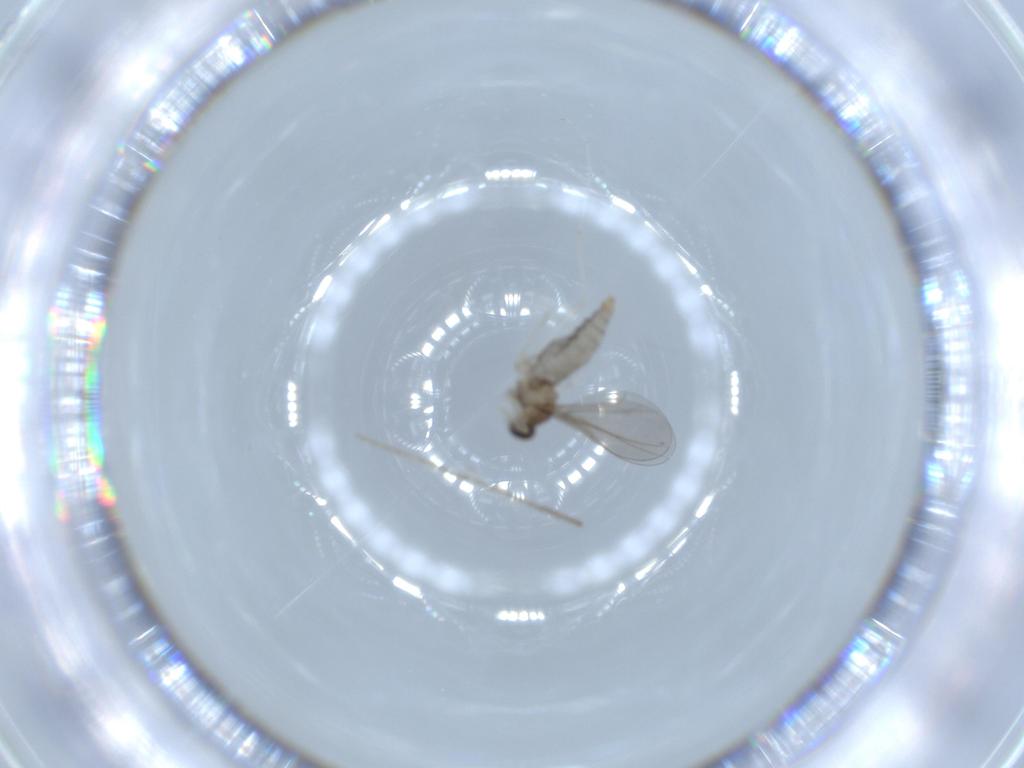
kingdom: Animalia
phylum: Arthropoda
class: Insecta
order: Diptera
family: Cecidomyiidae
